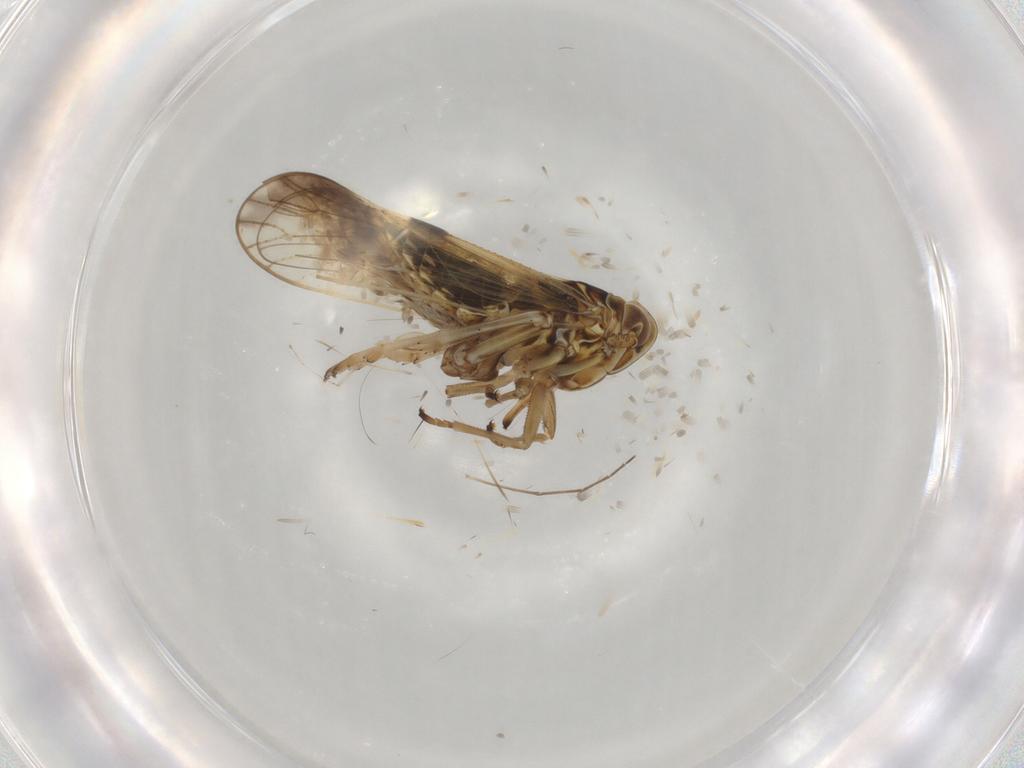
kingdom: Animalia
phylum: Arthropoda
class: Insecta
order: Hemiptera
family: Delphacidae
